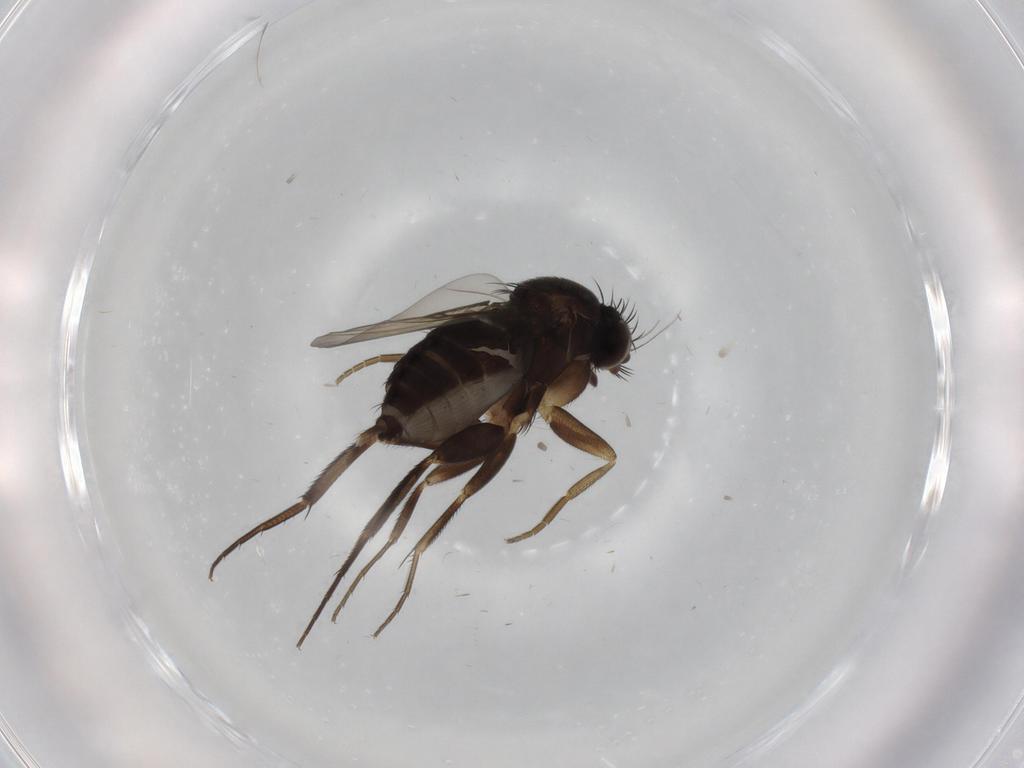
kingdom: Animalia
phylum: Arthropoda
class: Insecta
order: Diptera
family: Phoridae
